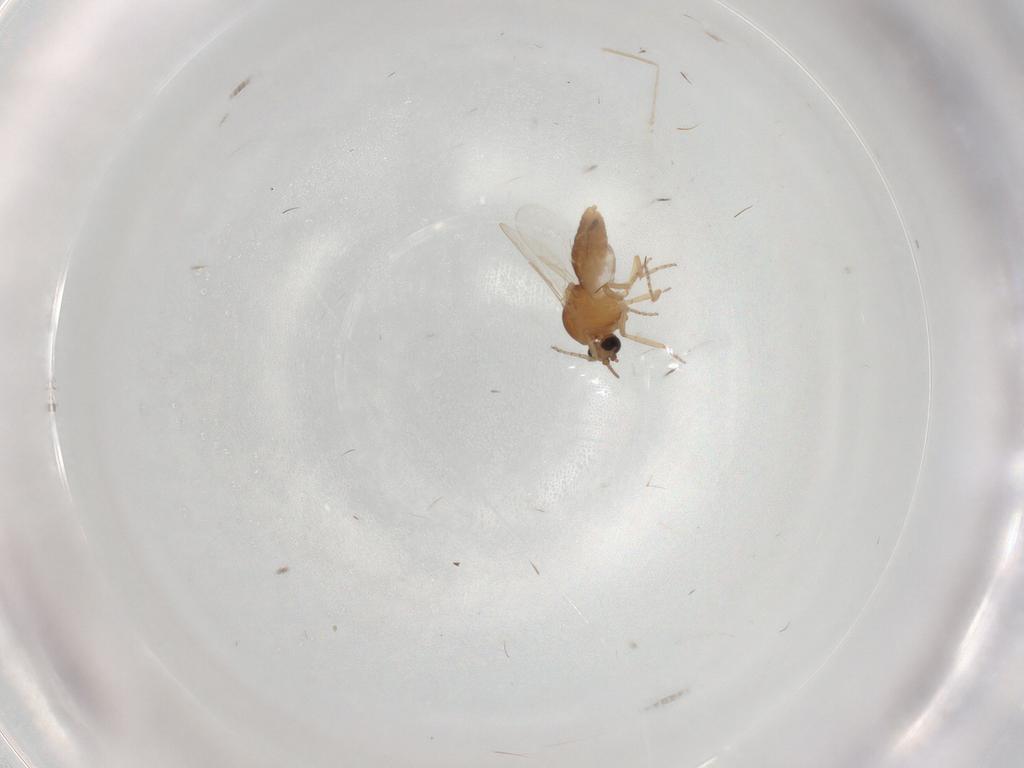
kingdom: Animalia
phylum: Arthropoda
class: Insecta
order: Diptera
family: Ceratopogonidae
